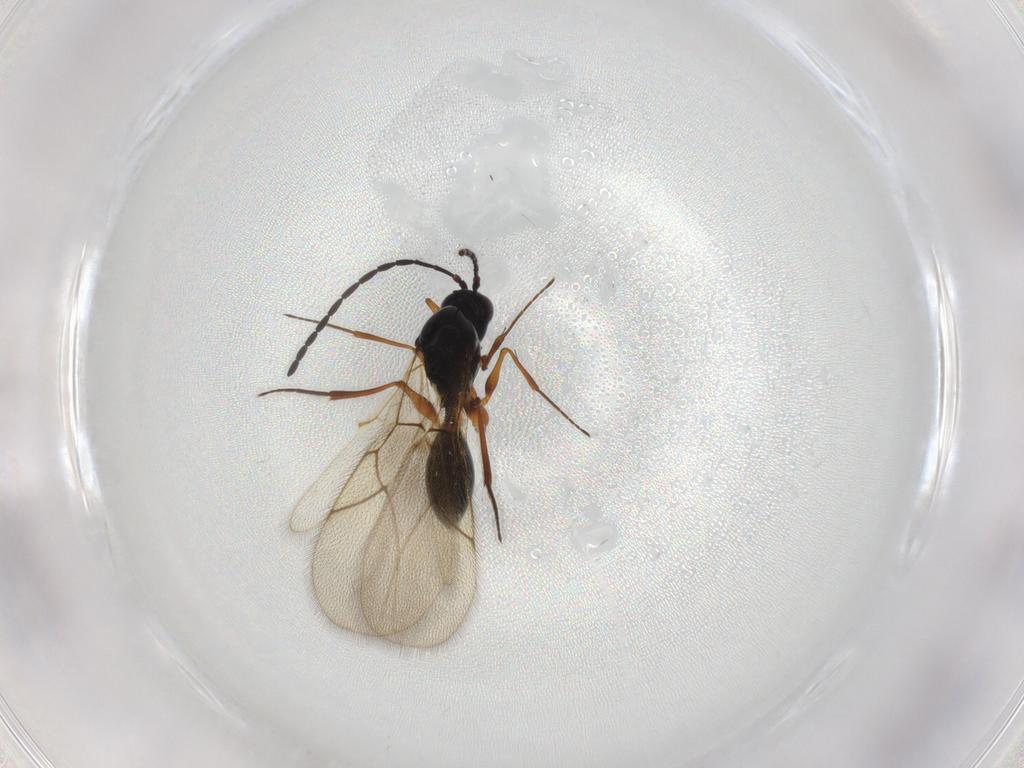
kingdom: Animalia
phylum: Arthropoda
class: Insecta
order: Hymenoptera
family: Figitidae
